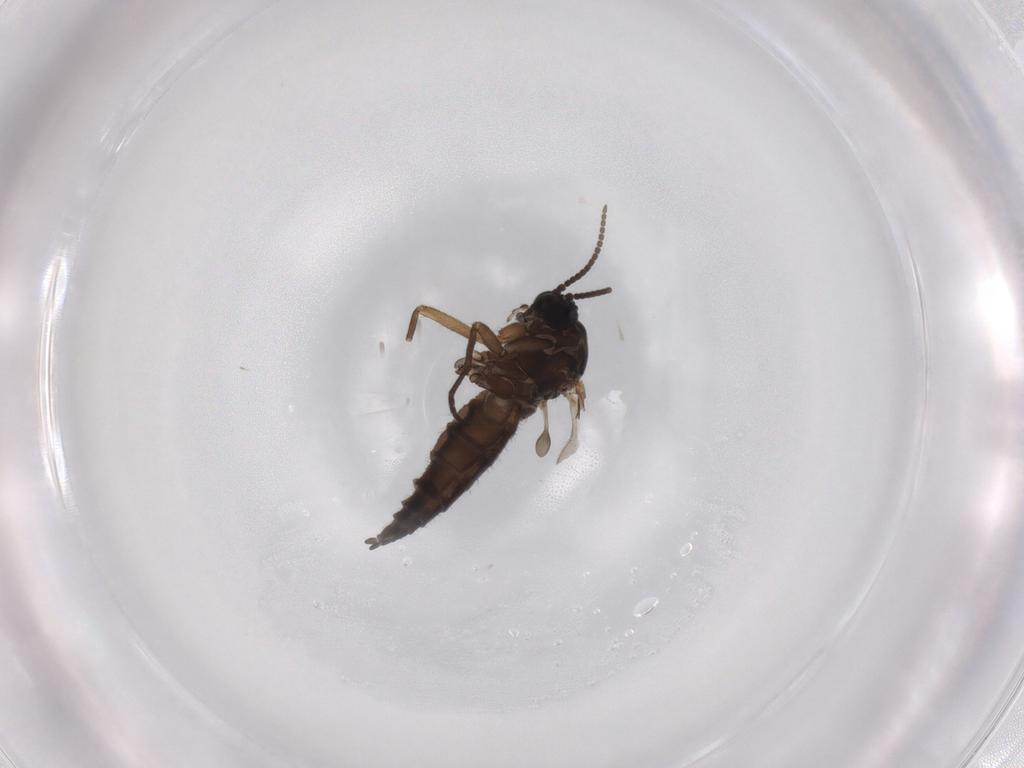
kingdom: Animalia
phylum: Arthropoda
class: Insecta
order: Diptera
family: Sciaridae
